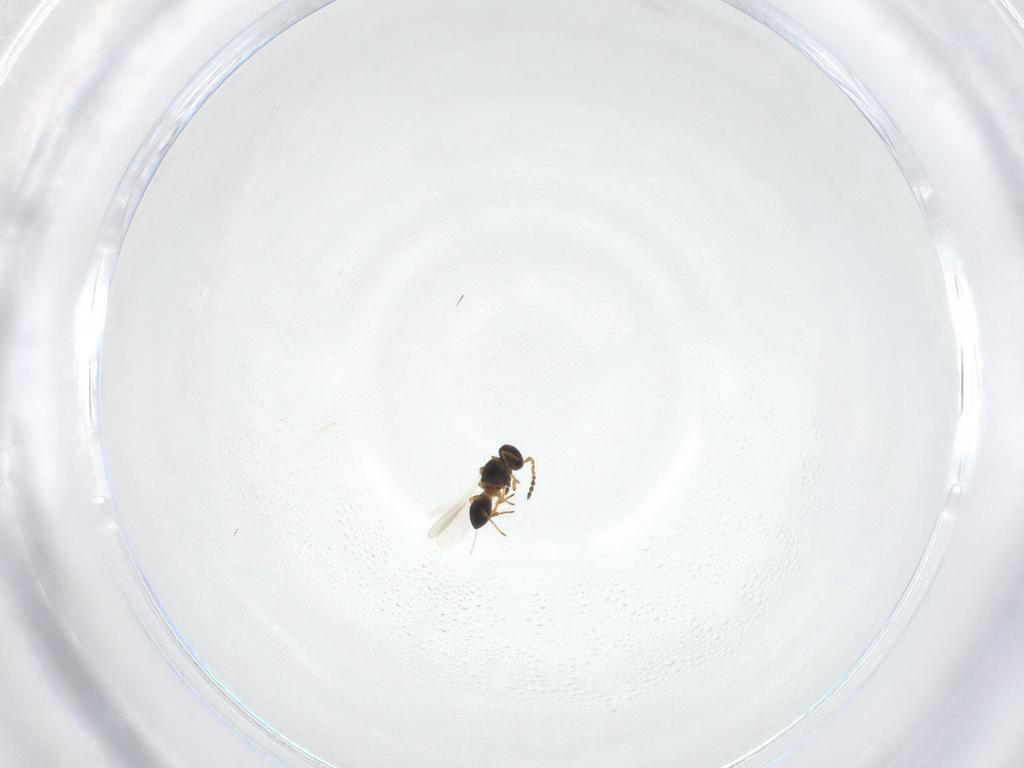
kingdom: Animalia
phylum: Arthropoda
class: Insecta
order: Hymenoptera
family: Platygastridae
